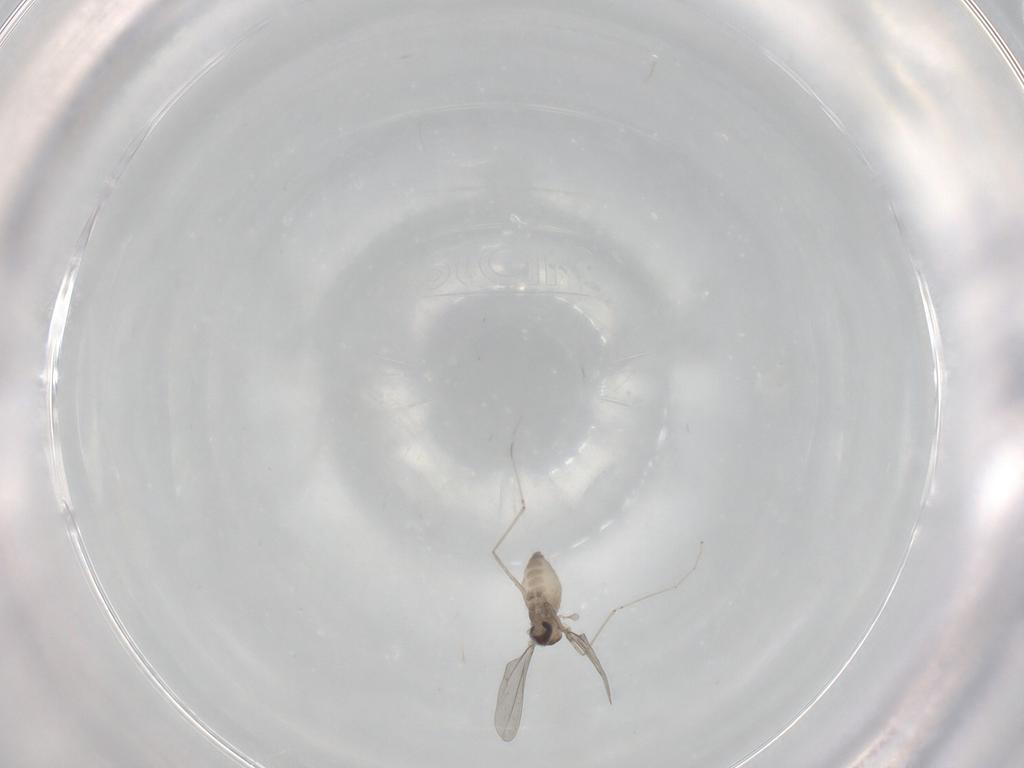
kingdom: Animalia
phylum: Arthropoda
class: Insecta
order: Diptera
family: Cecidomyiidae
